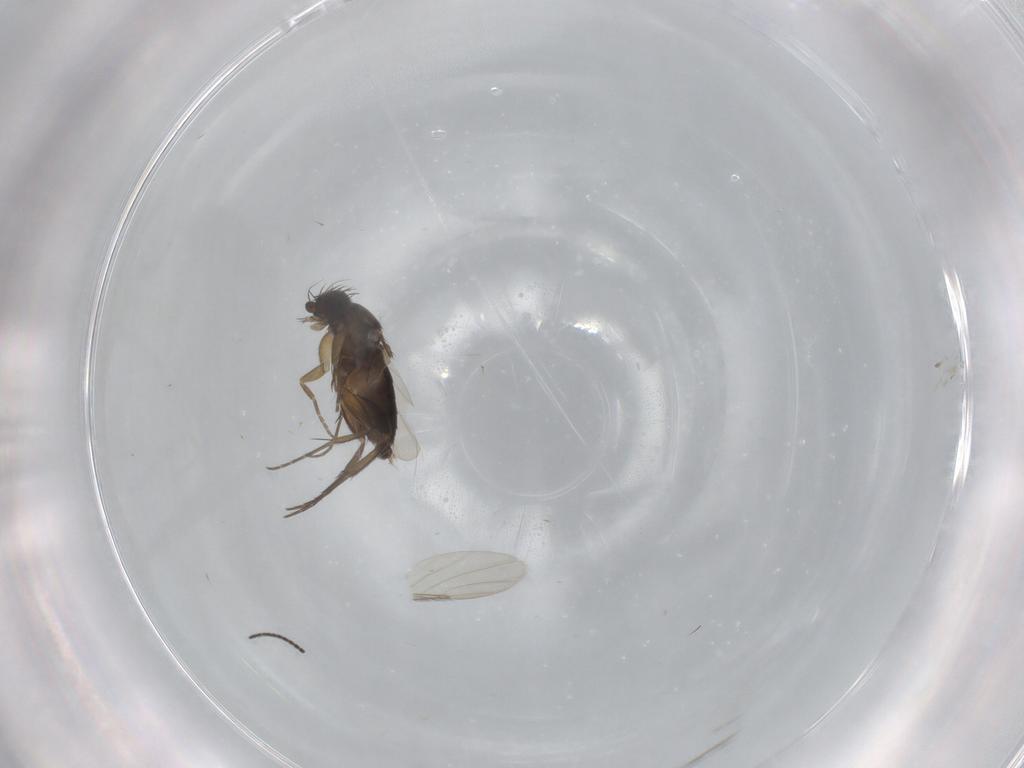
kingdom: Animalia
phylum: Arthropoda
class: Insecta
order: Diptera
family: Phoridae
